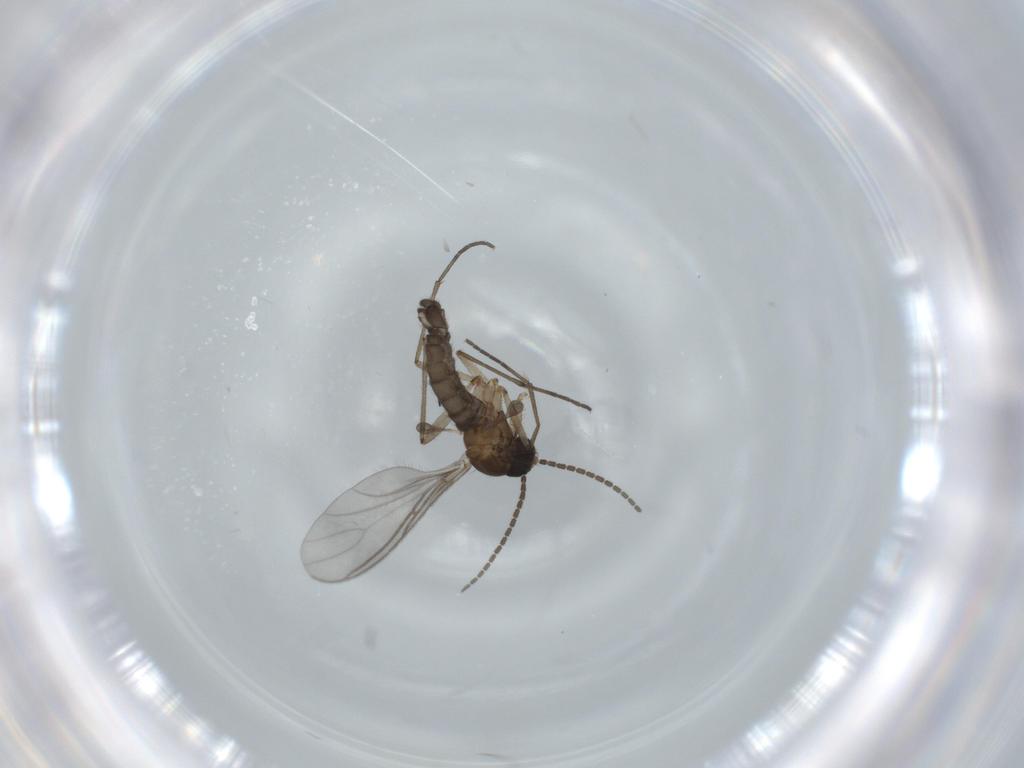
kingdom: Animalia
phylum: Arthropoda
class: Insecta
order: Diptera
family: Sciaridae
